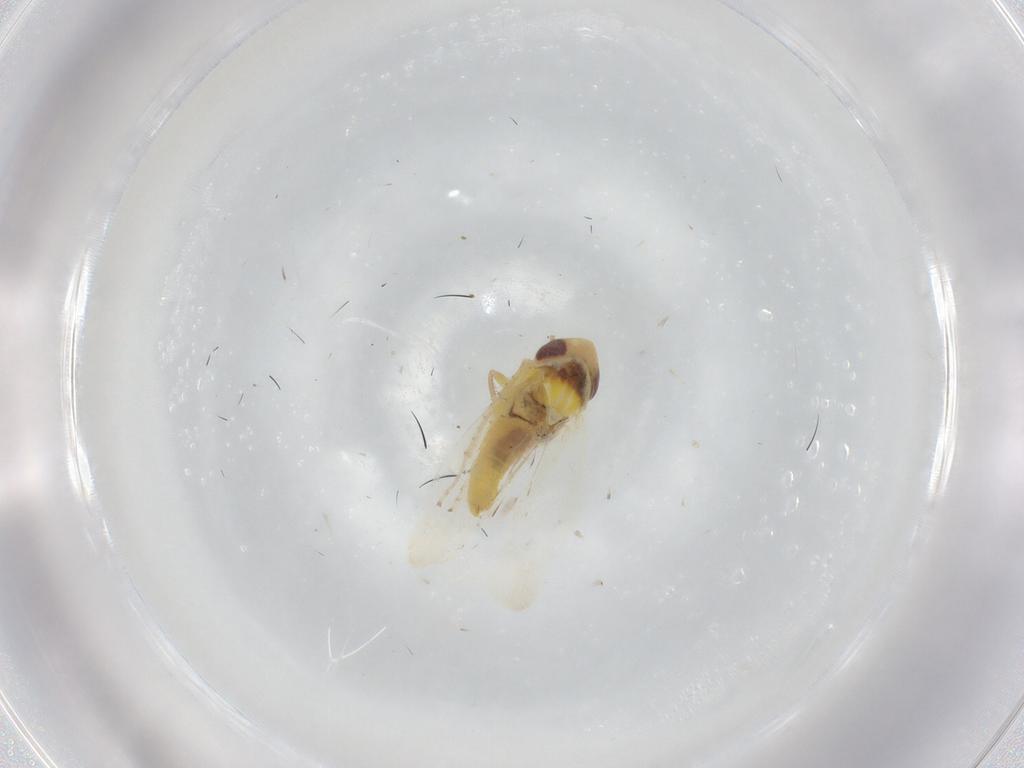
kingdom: Animalia
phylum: Arthropoda
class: Insecta
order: Hemiptera
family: Cicadellidae
